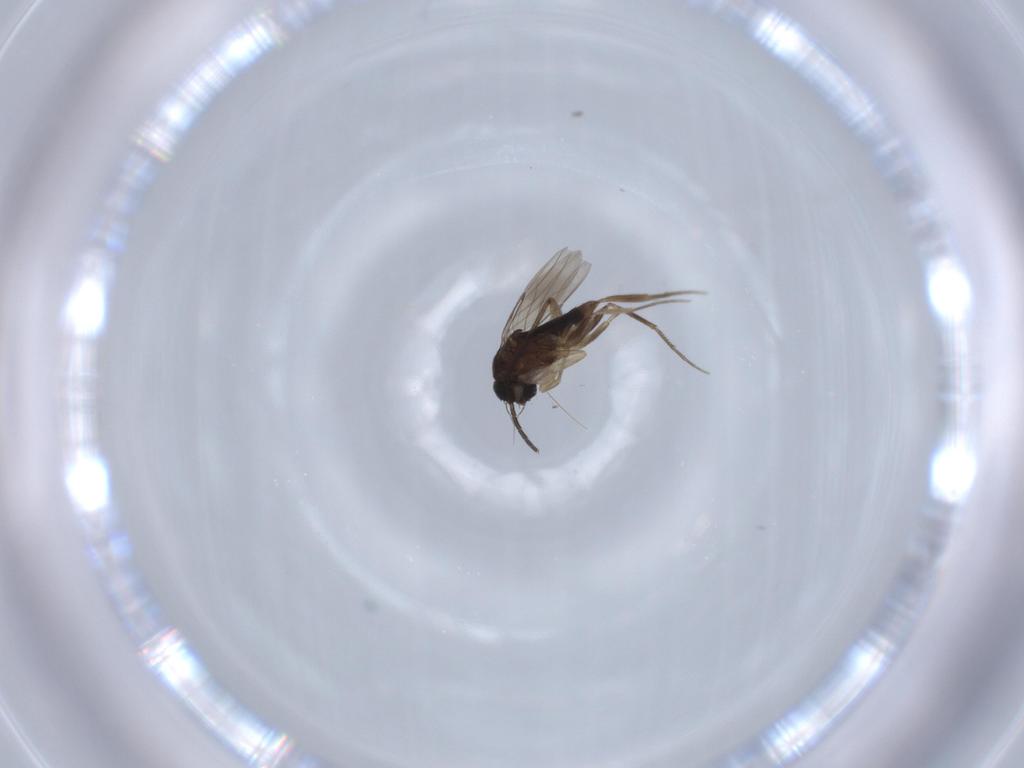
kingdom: Animalia
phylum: Arthropoda
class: Insecta
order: Diptera
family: Phoridae
